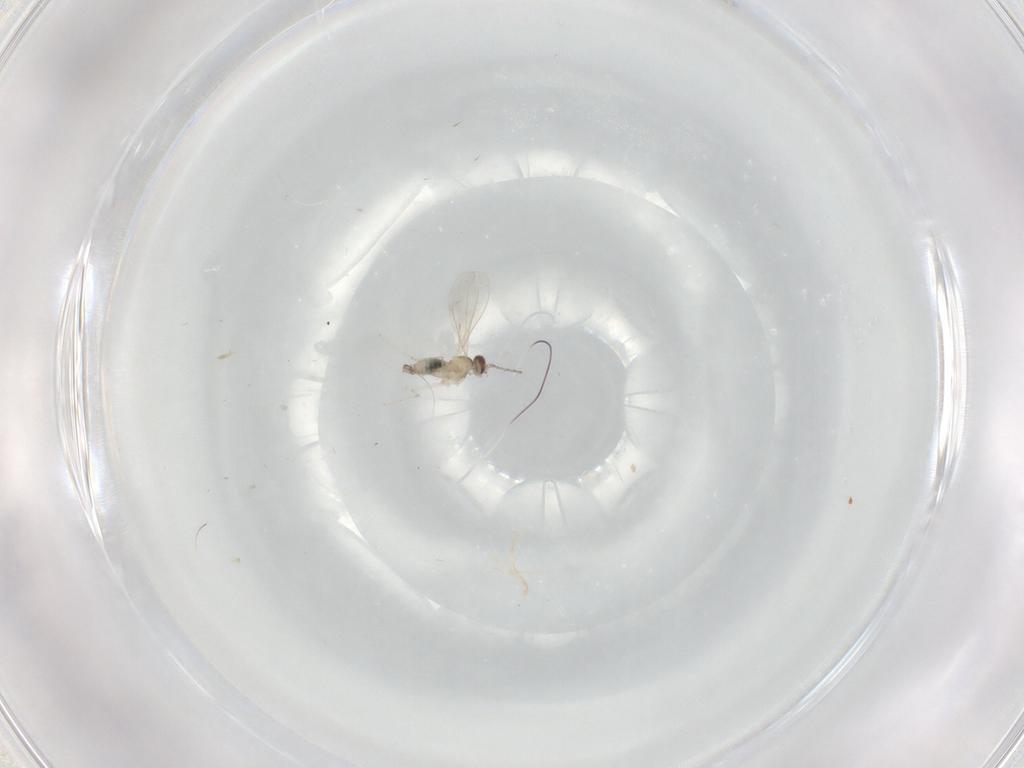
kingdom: Animalia
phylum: Arthropoda
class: Insecta
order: Diptera
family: Cecidomyiidae
